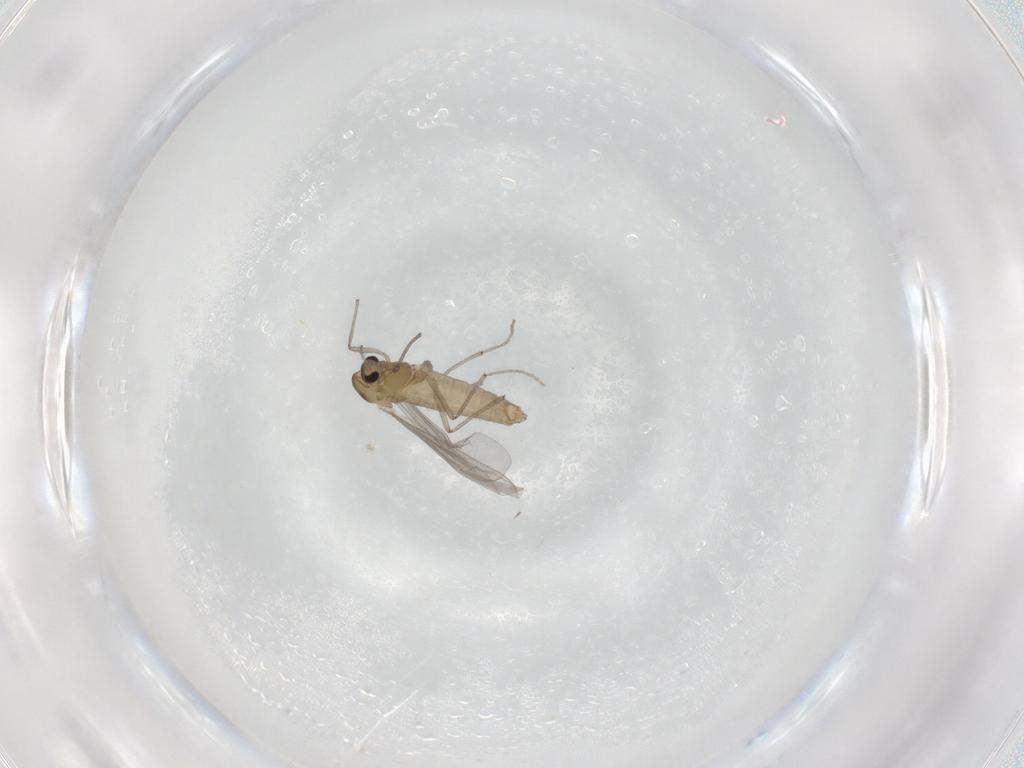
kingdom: Animalia
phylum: Arthropoda
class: Insecta
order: Diptera
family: Chironomidae
